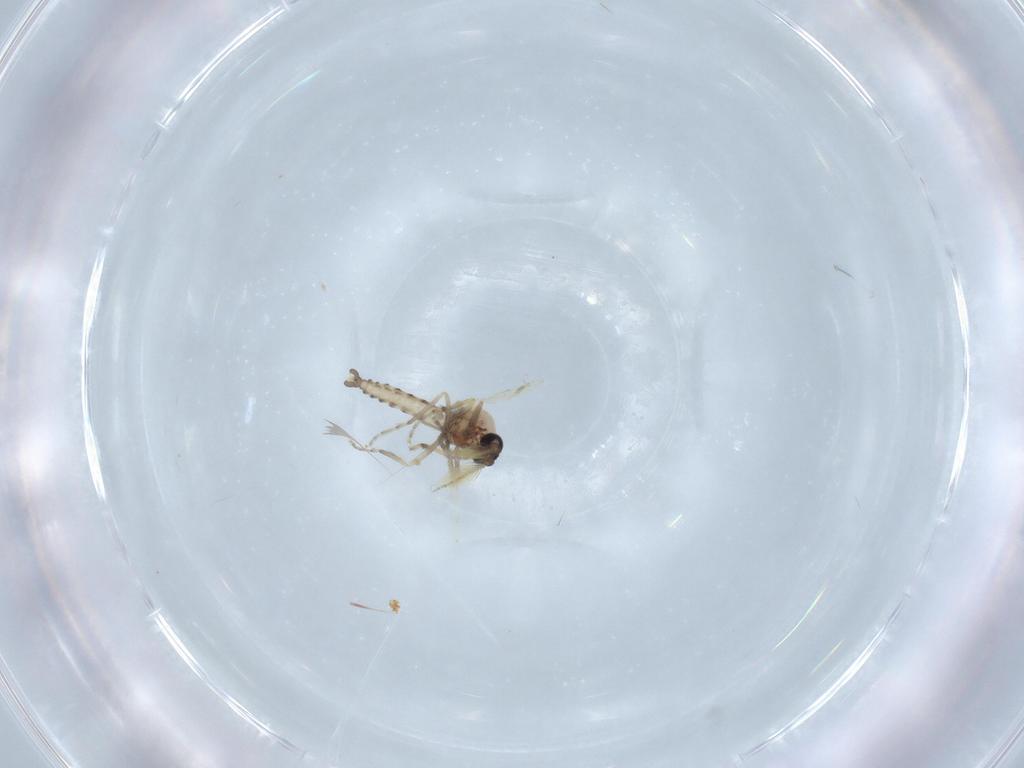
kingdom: Animalia
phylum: Arthropoda
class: Insecta
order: Diptera
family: Ceratopogonidae
